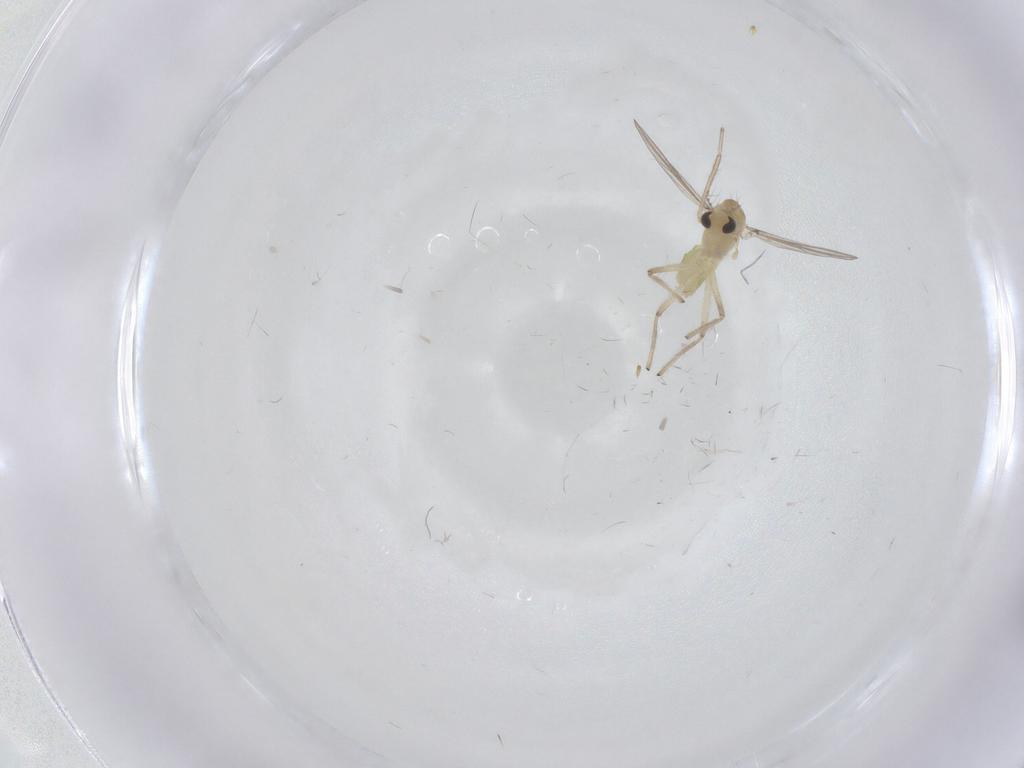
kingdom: Animalia
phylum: Arthropoda
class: Insecta
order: Diptera
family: Chironomidae
